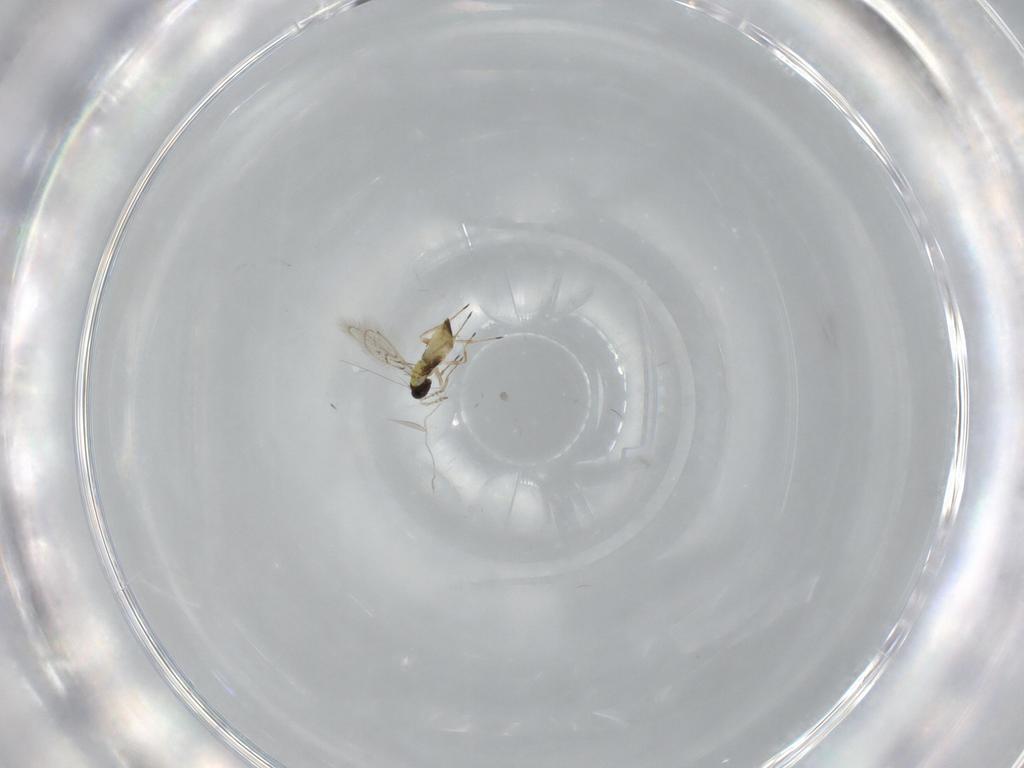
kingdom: Animalia
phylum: Arthropoda
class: Insecta
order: Hymenoptera
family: Trichogrammatidae
